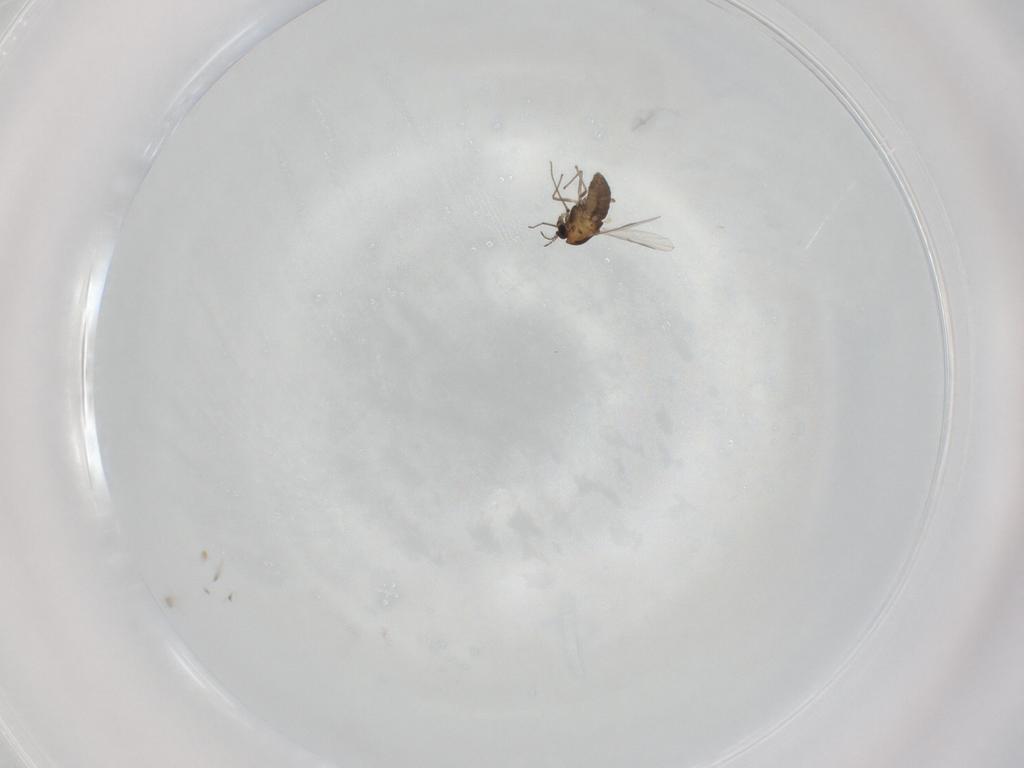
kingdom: Animalia
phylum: Arthropoda
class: Insecta
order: Diptera
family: Chironomidae
